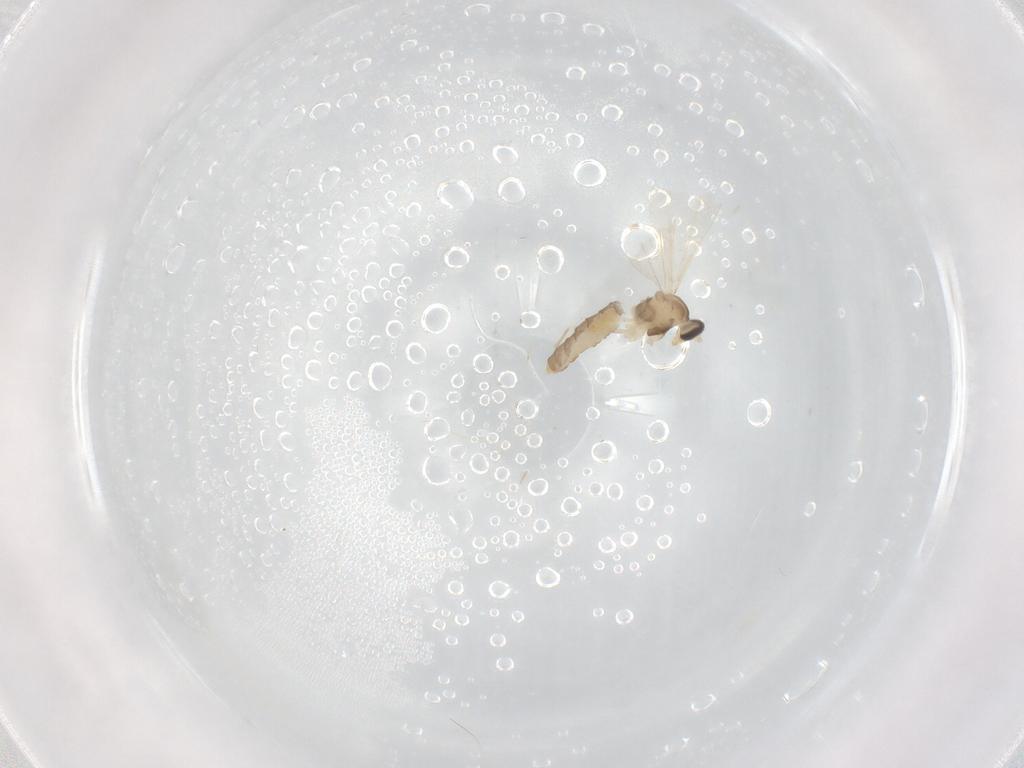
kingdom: Animalia
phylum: Arthropoda
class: Insecta
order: Diptera
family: Cecidomyiidae
